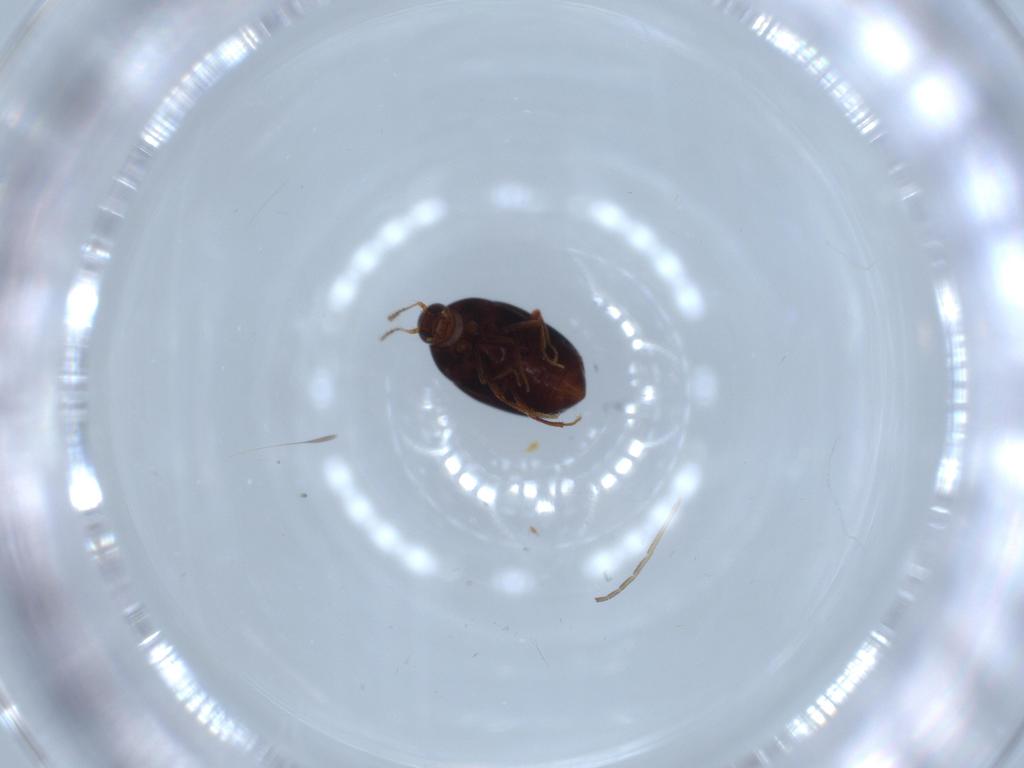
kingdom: Animalia
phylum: Arthropoda
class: Insecta
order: Coleoptera
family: Staphylinidae
